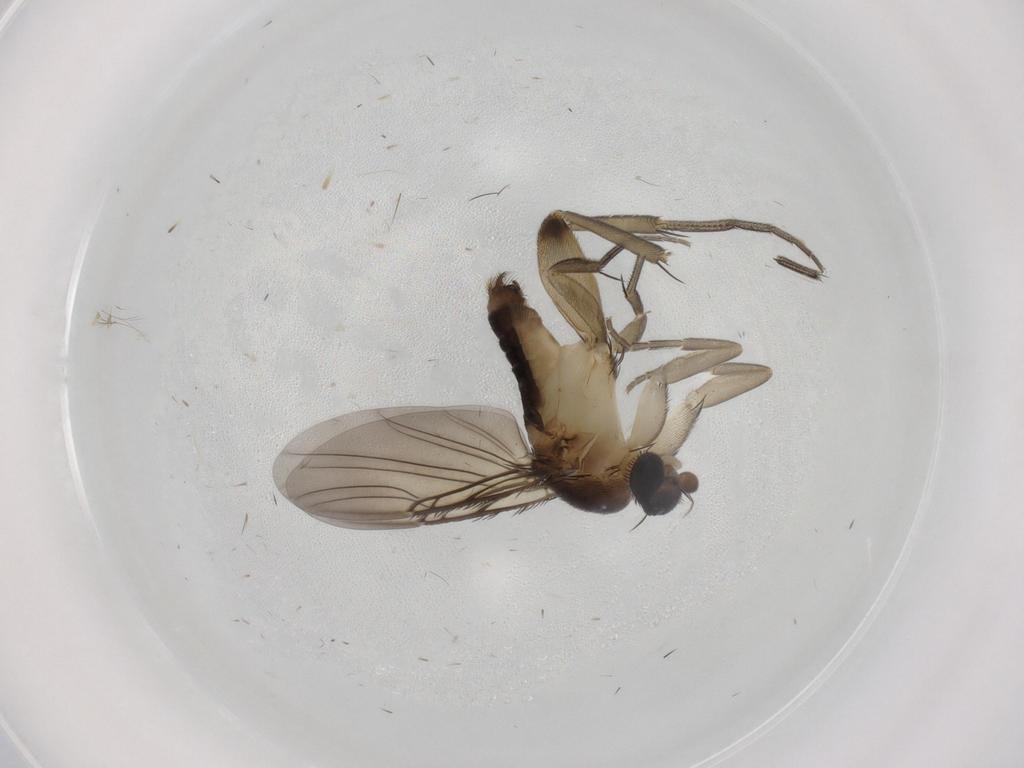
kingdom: Animalia
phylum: Arthropoda
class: Insecta
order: Diptera
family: Phoridae
